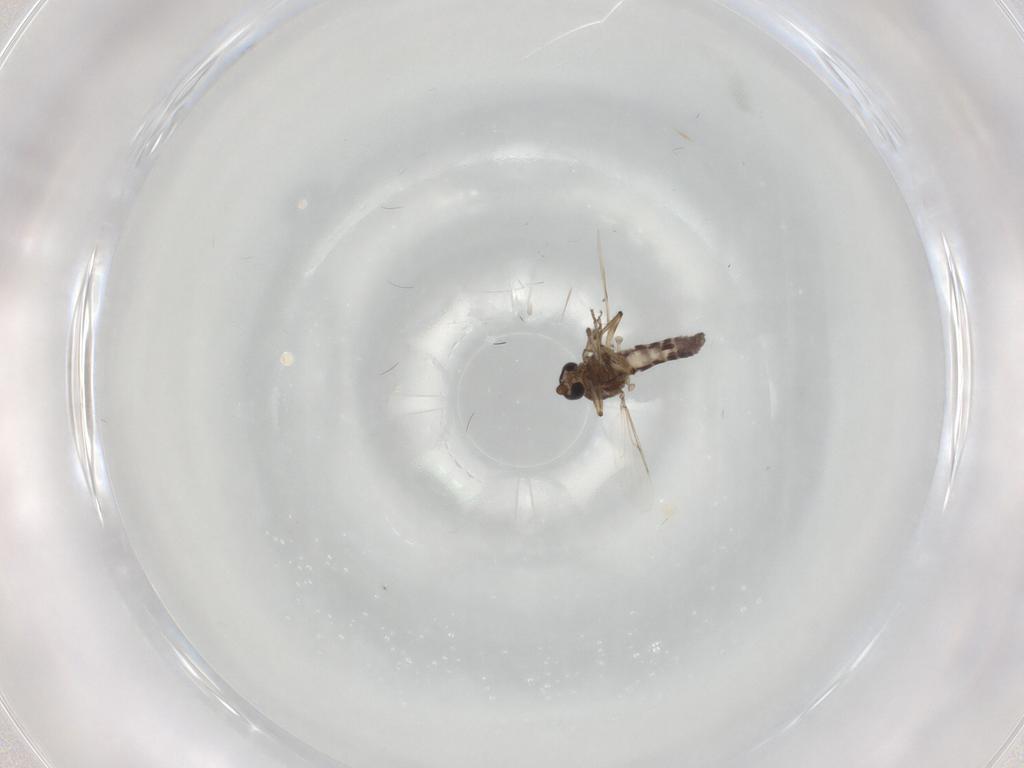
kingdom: Animalia
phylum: Arthropoda
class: Insecta
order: Diptera
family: Ceratopogonidae
